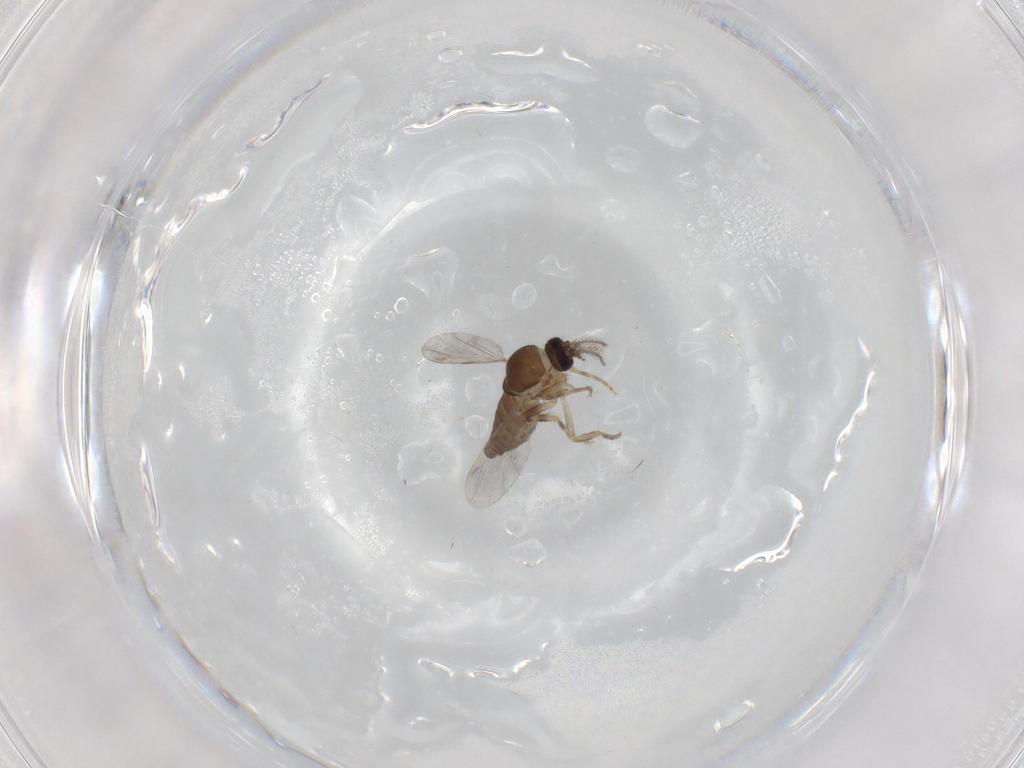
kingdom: Animalia
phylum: Arthropoda
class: Insecta
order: Diptera
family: Ceratopogonidae
